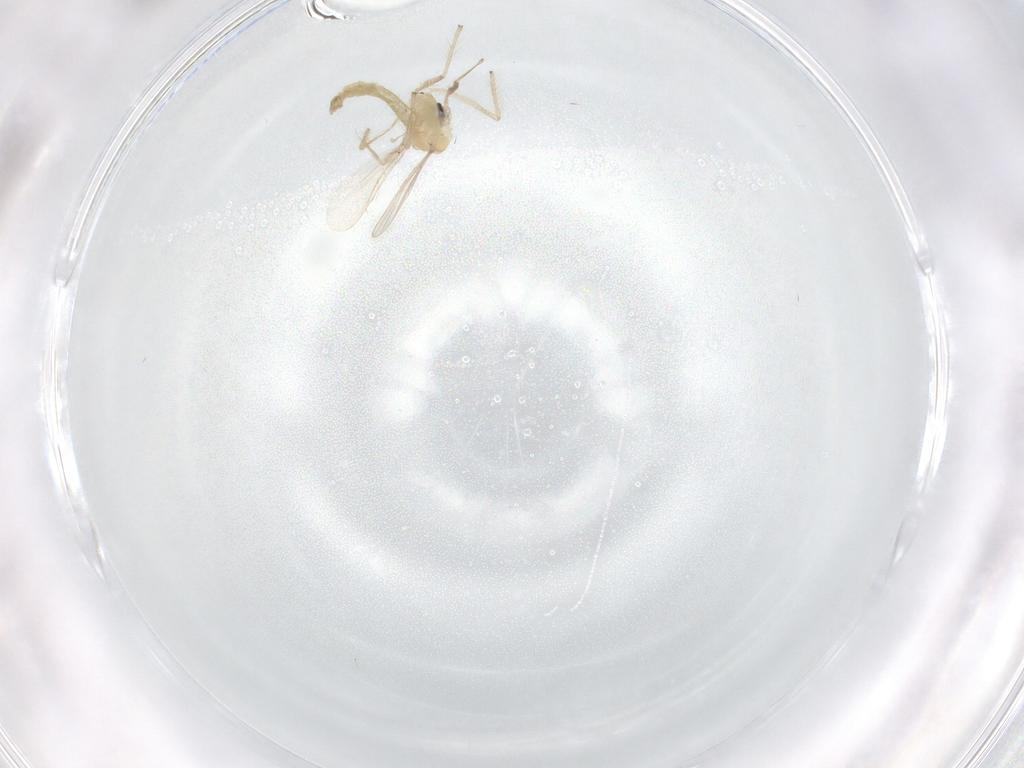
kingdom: Animalia
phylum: Arthropoda
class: Insecta
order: Diptera
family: Chironomidae
